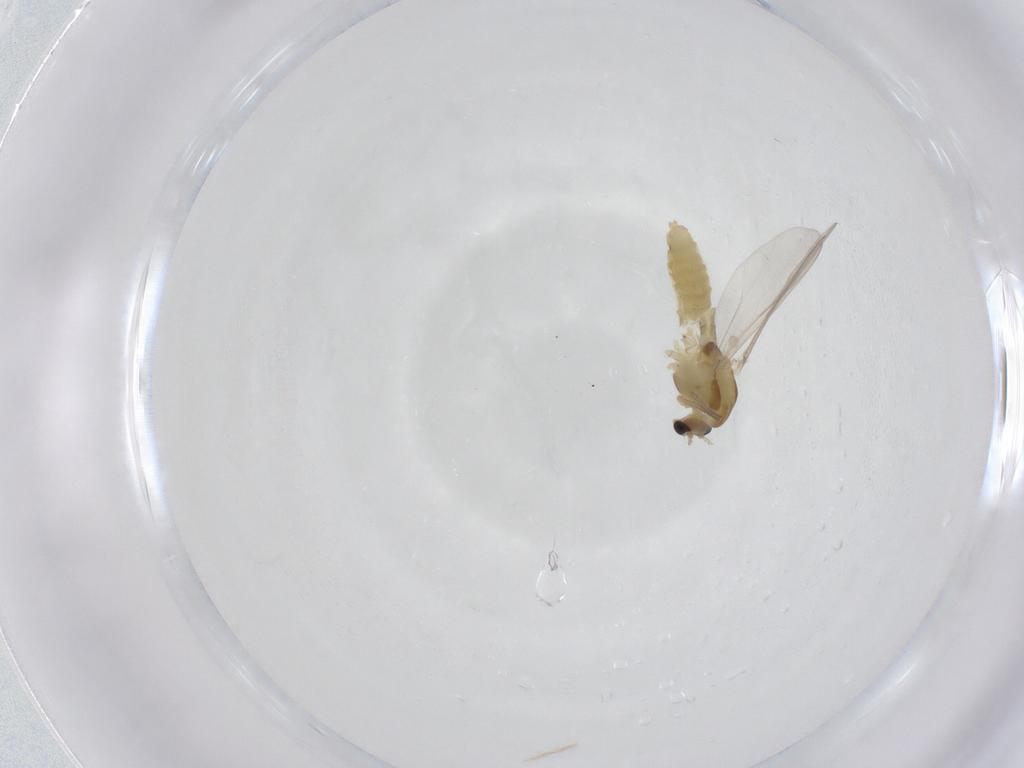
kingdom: Animalia
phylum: Arthropoda
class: Insecta
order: Diptera
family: Chironomidae
